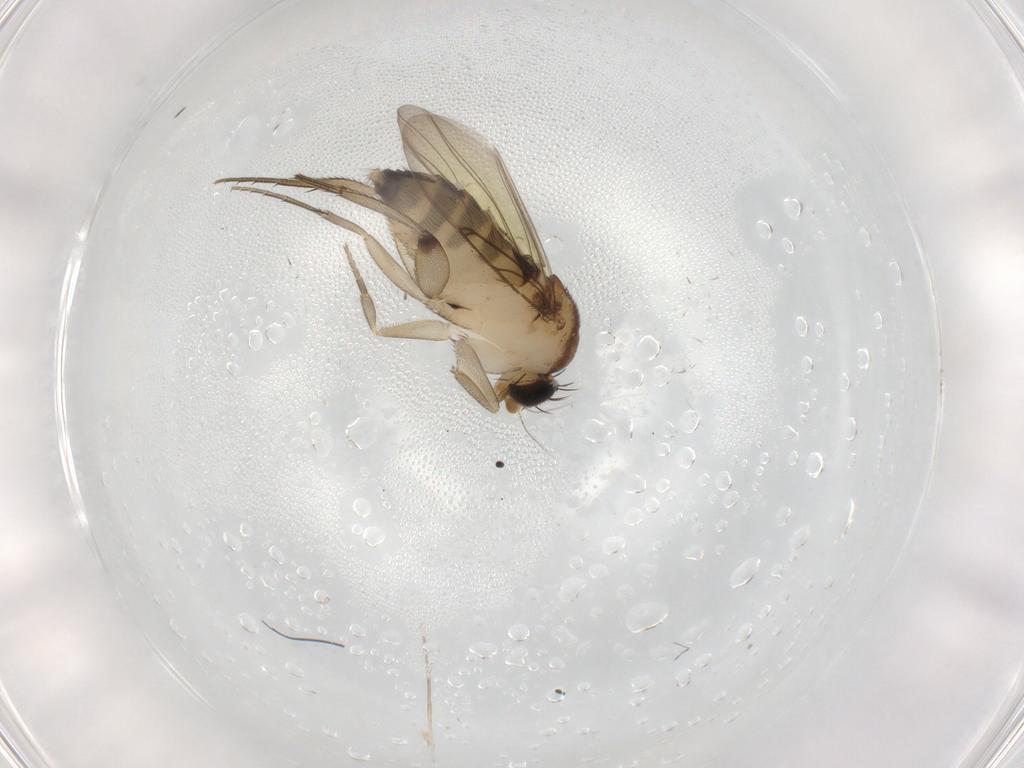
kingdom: Animalia
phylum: Arthropoda
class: Insecta
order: Diptera
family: Phoridae
